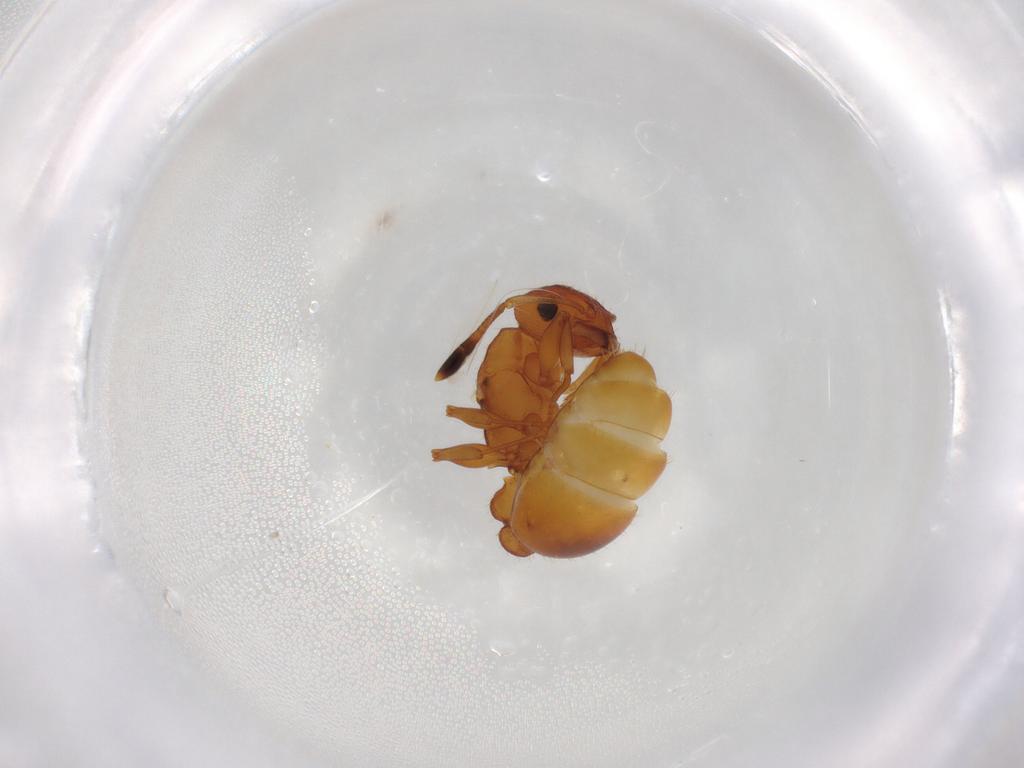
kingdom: Animalia
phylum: Arthropoda
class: Insecta
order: Hymenoptera
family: Formicidae
